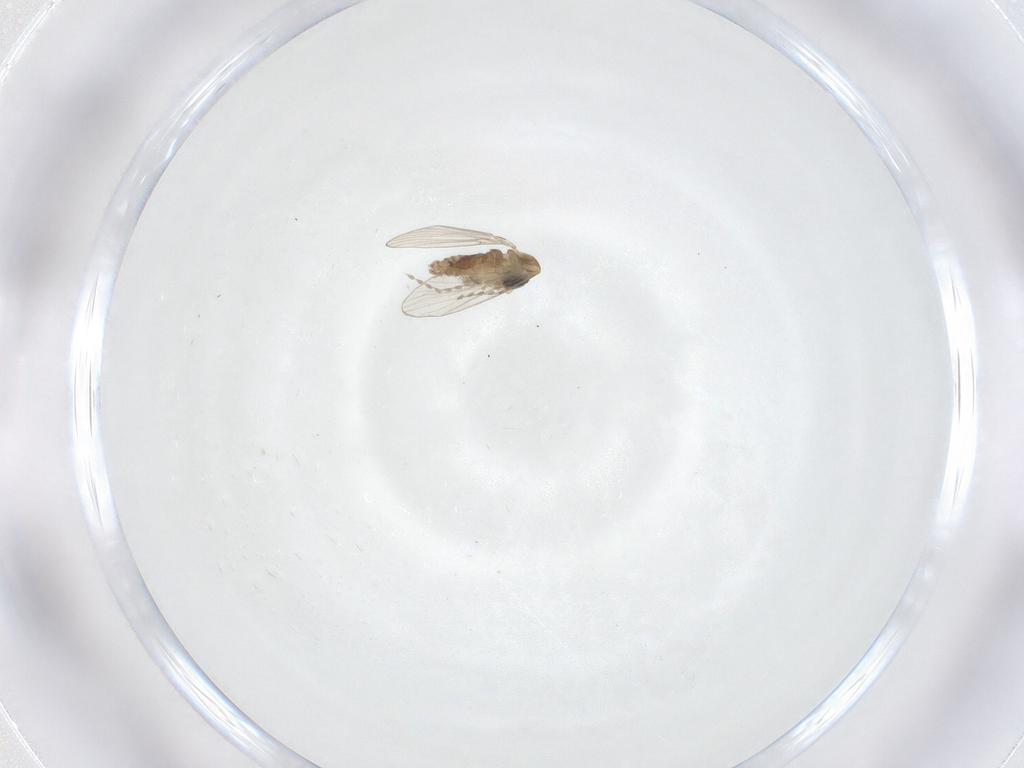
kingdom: Animalia
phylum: Arthropoda
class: Insecta
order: Diptera
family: Psychodidae
